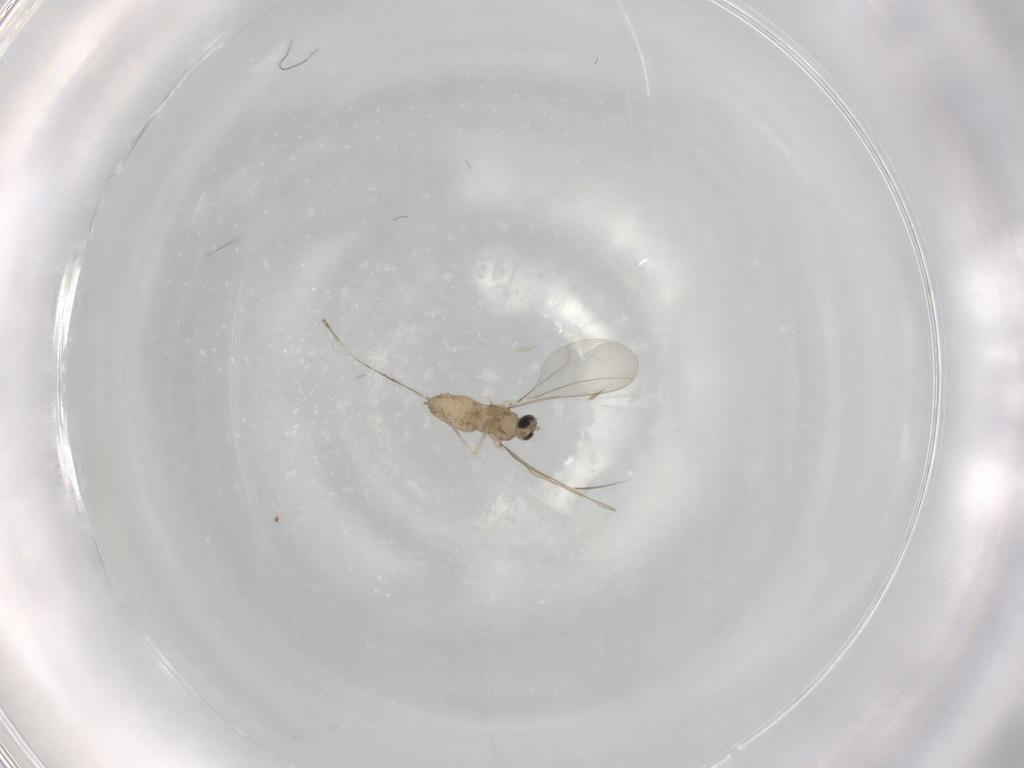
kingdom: Animalia
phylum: Arthropoda
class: Insecta
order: Diptera
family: Cecidomyiidae
